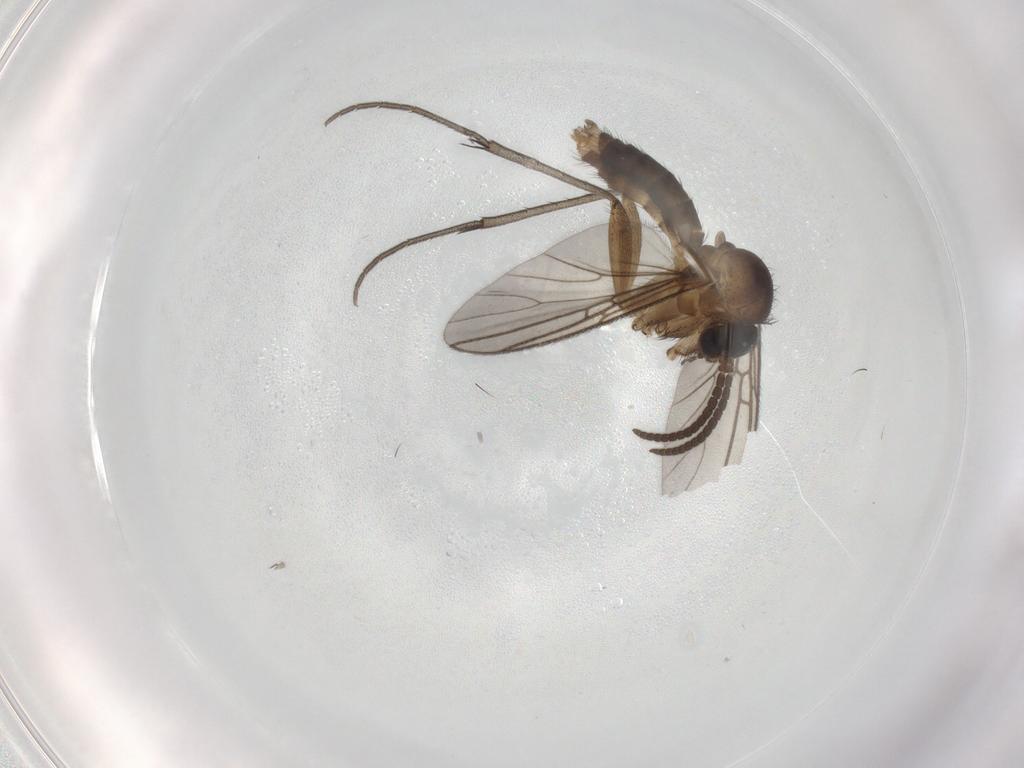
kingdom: Animalia
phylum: Arthropoda
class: Insecta
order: Diptera
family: Mycetophilidae
